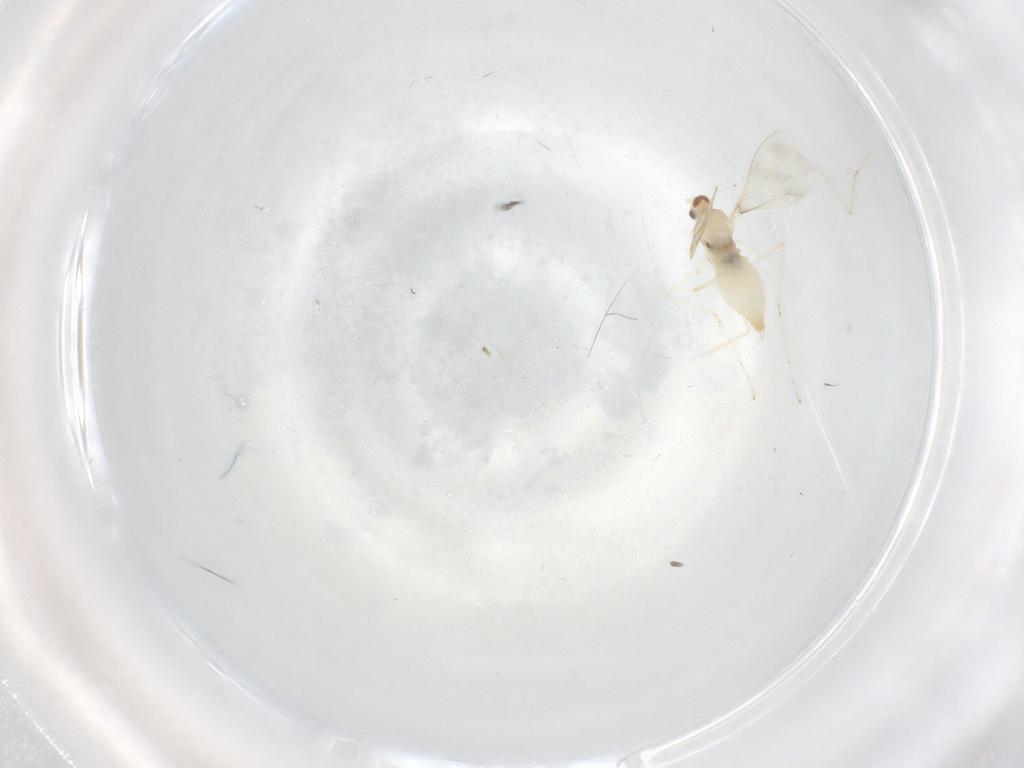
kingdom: Animalia
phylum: Arthropoda
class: Insecta
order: Diptera
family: Cecidomyiidae
